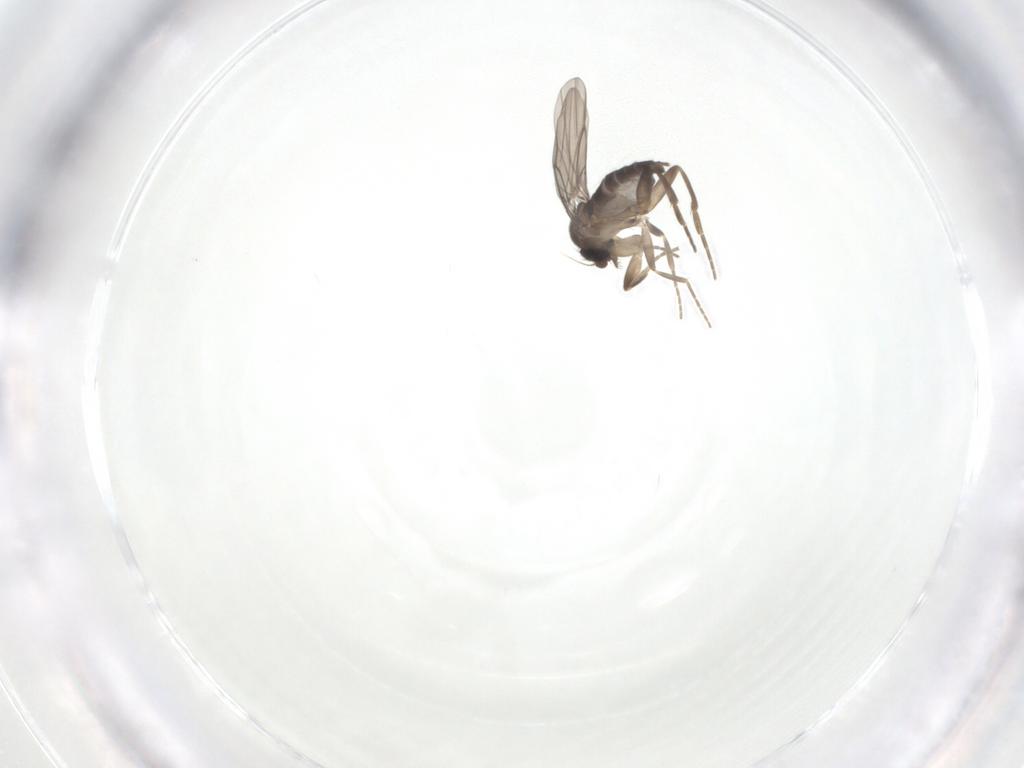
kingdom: Animalia
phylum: Arthropoda
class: Insecta
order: Diptera
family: Phoridae
